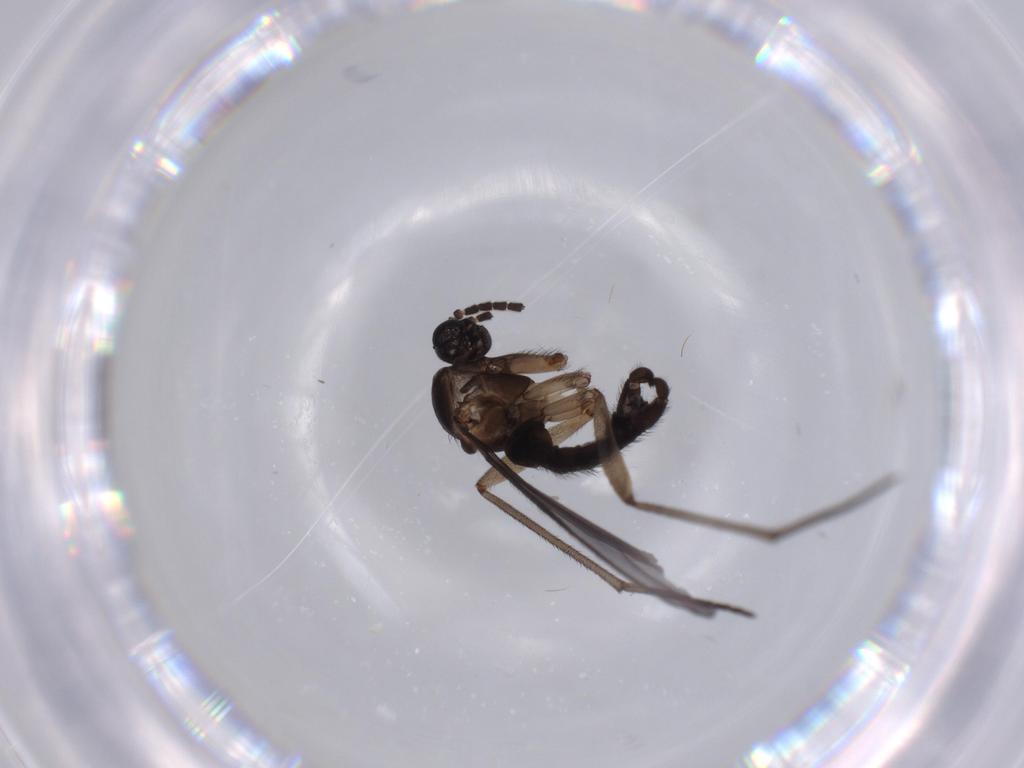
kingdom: Animalia
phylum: Arthropoda
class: Insecta
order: Diptera
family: Sciaridae
